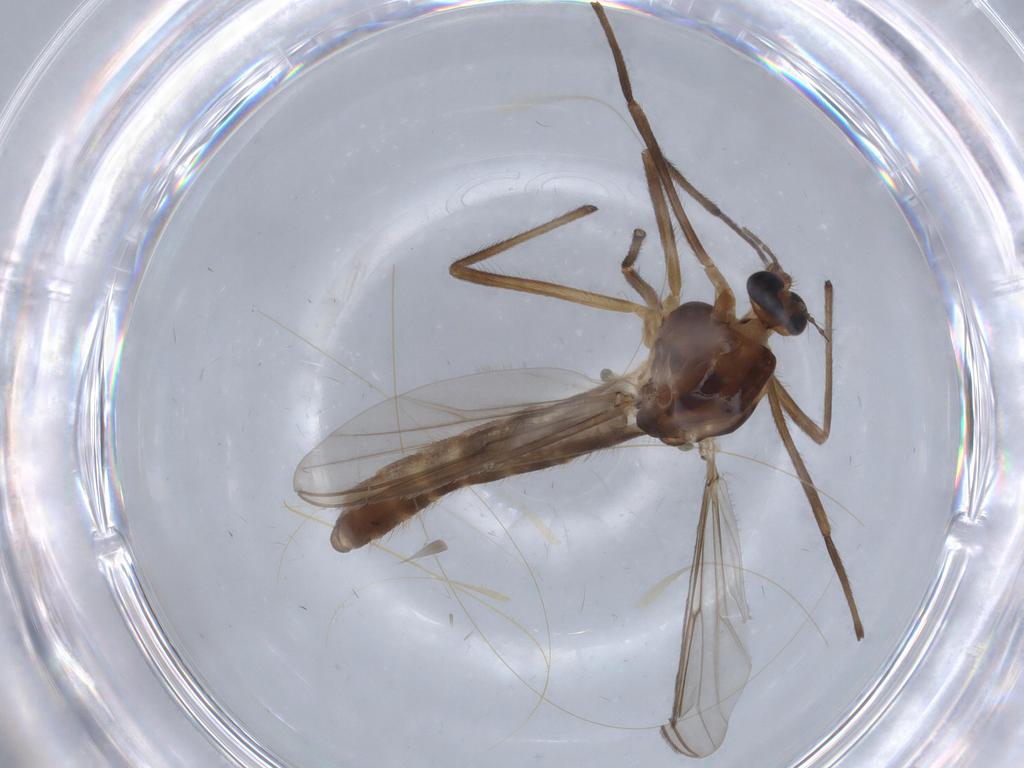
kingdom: Animalia
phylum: Arthropoda
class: Insecta
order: Diptera
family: Chironomidae
